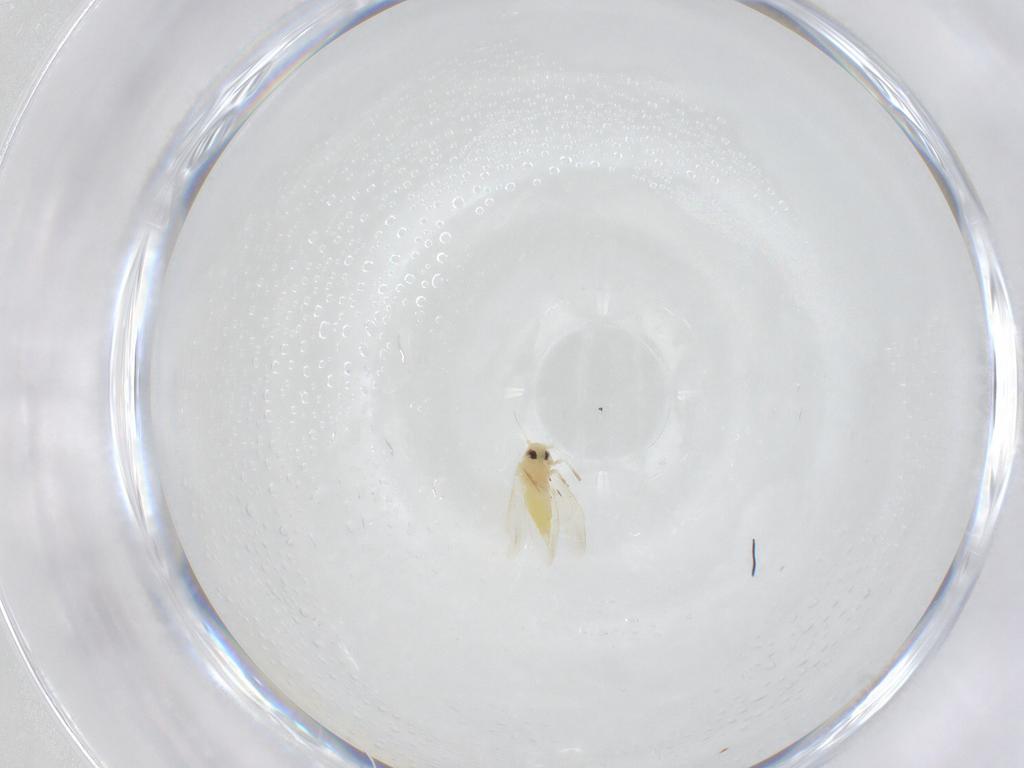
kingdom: Animalia
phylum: Arthropoda
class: Insecta
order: Hemiptera
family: Aleyrodidae
